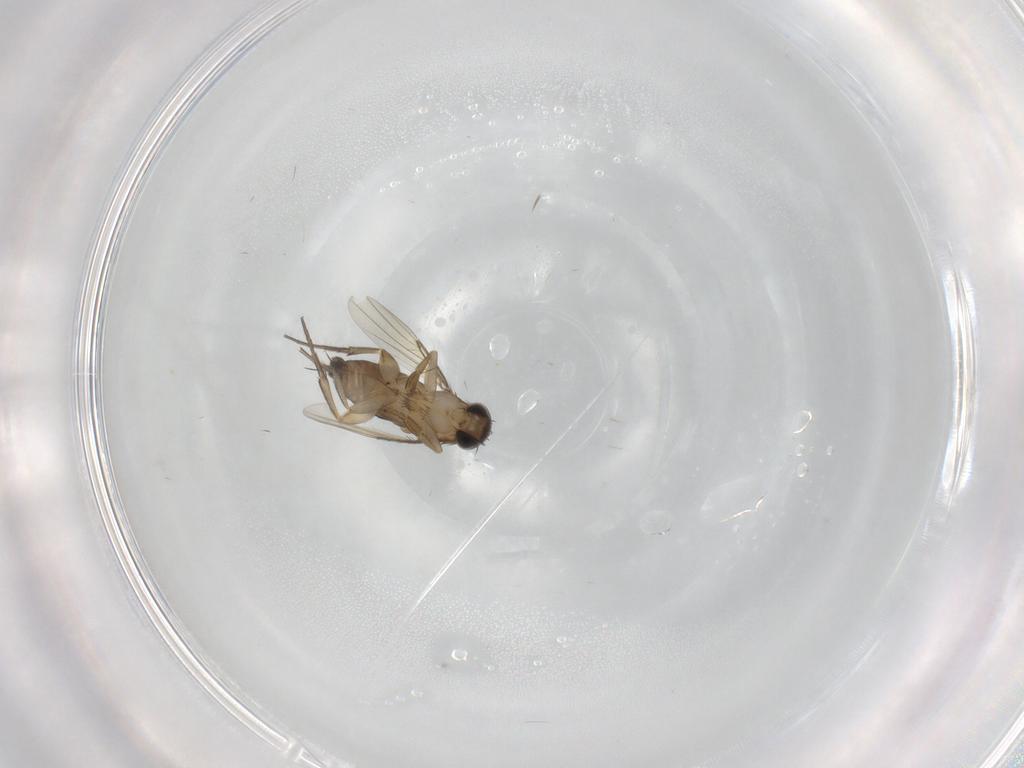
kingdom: Animalia
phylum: Arthropoda
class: Insecta
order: Diptera
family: Phoridae
